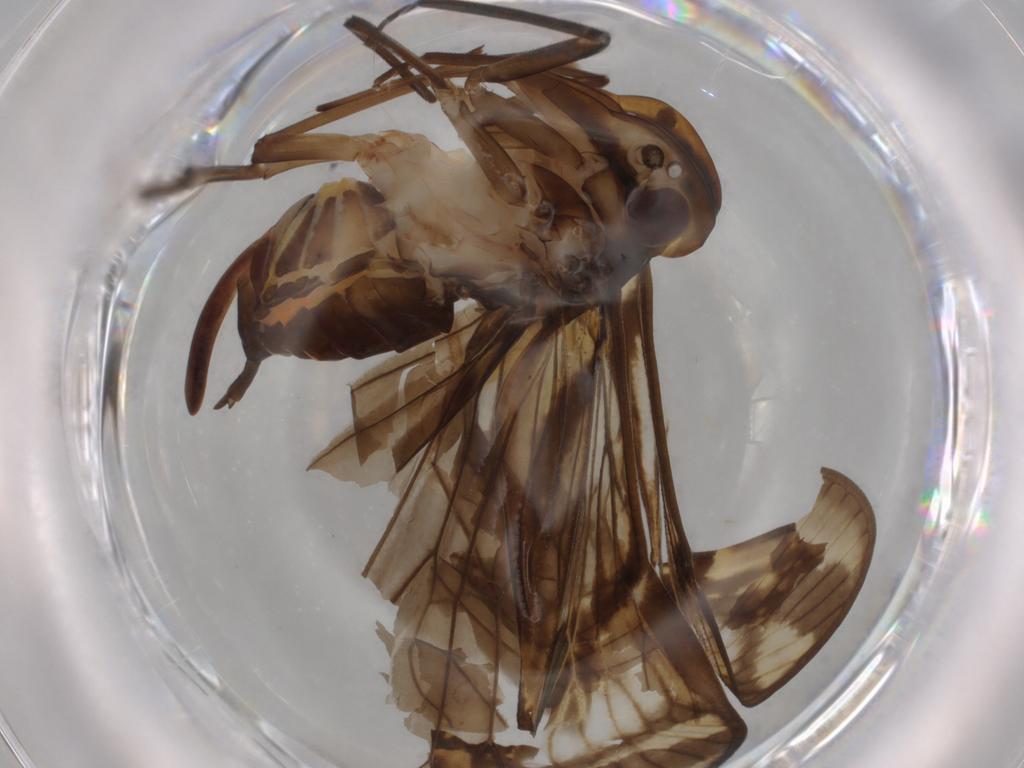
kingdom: Animalia
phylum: Arthropoda
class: Insecta
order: Hemiptera
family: Cixiidae
